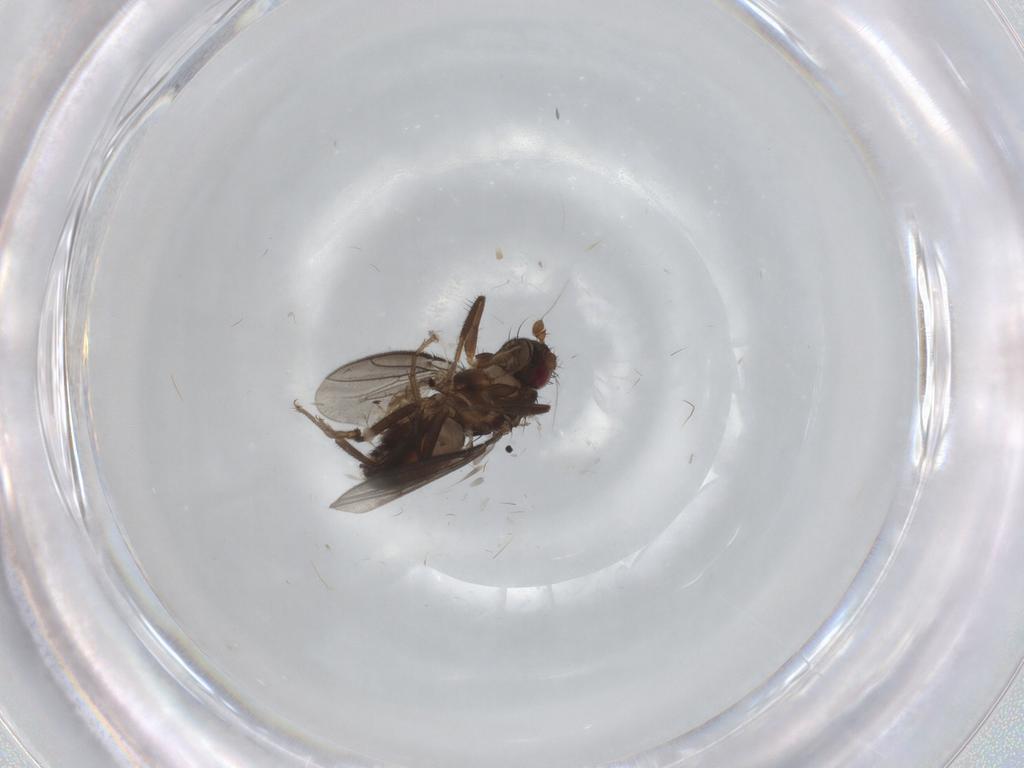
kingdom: Animalia
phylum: Arthropoda
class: Insecta
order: Diptera
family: Sphaeroceridae
